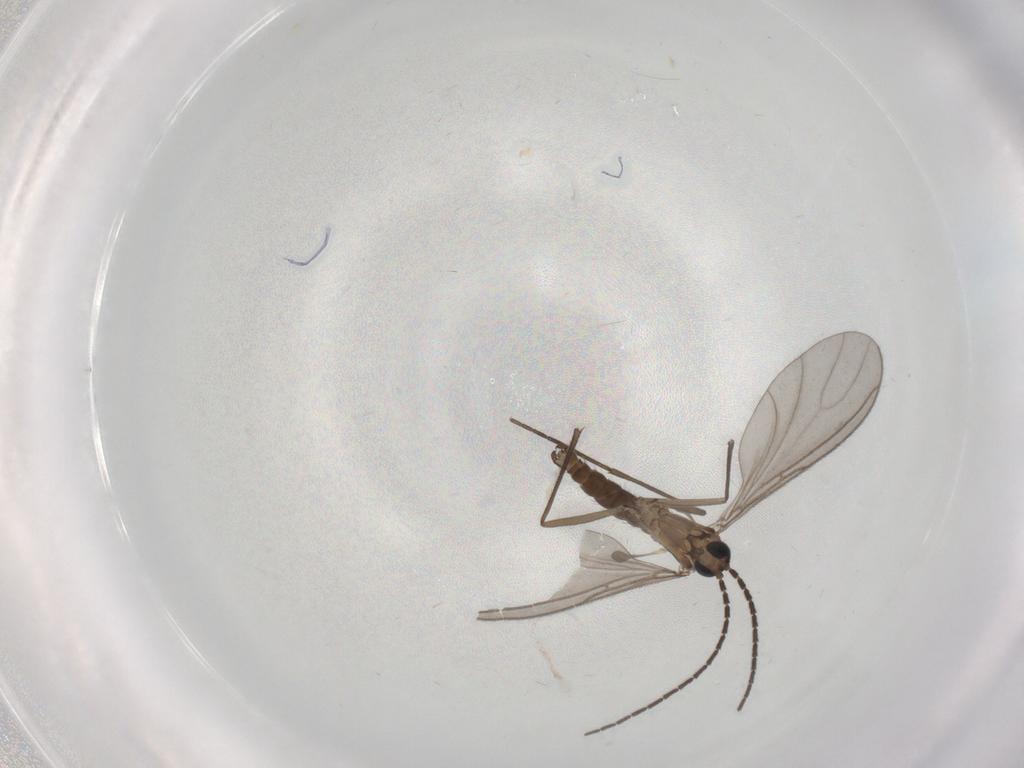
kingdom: Animalia
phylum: Arthropoda
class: Insecta
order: Diptera
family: Sciaridae
